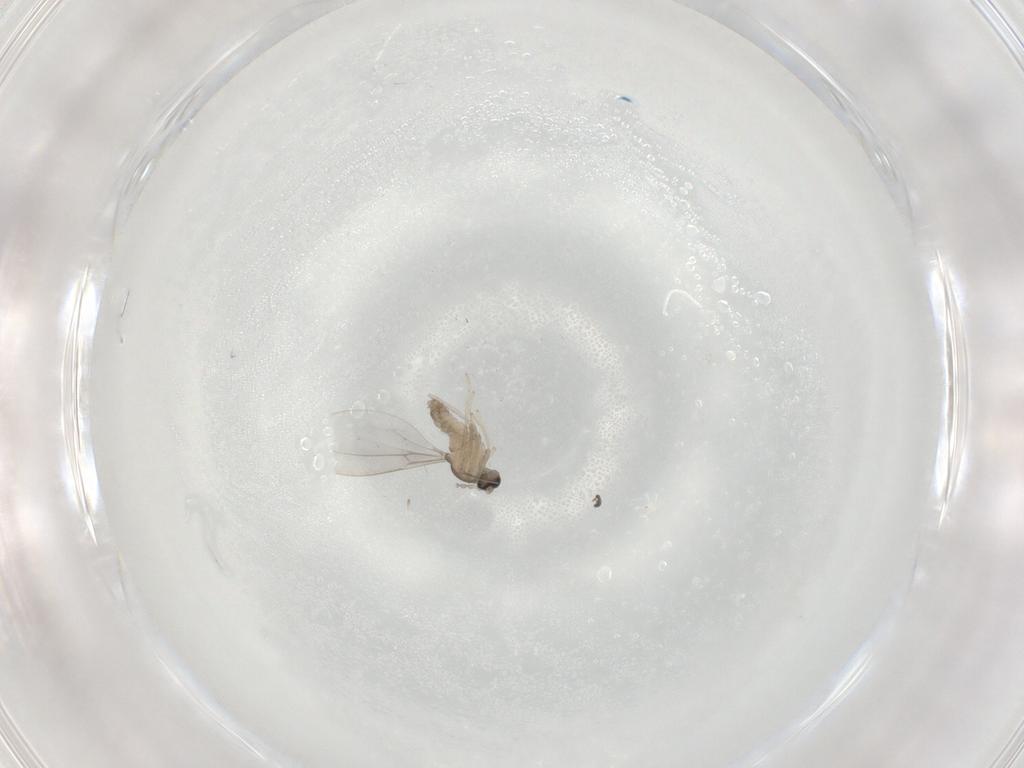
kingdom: Animalia
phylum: Arthropoda
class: Insecta
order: Diptera
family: Cecidomyiidae
